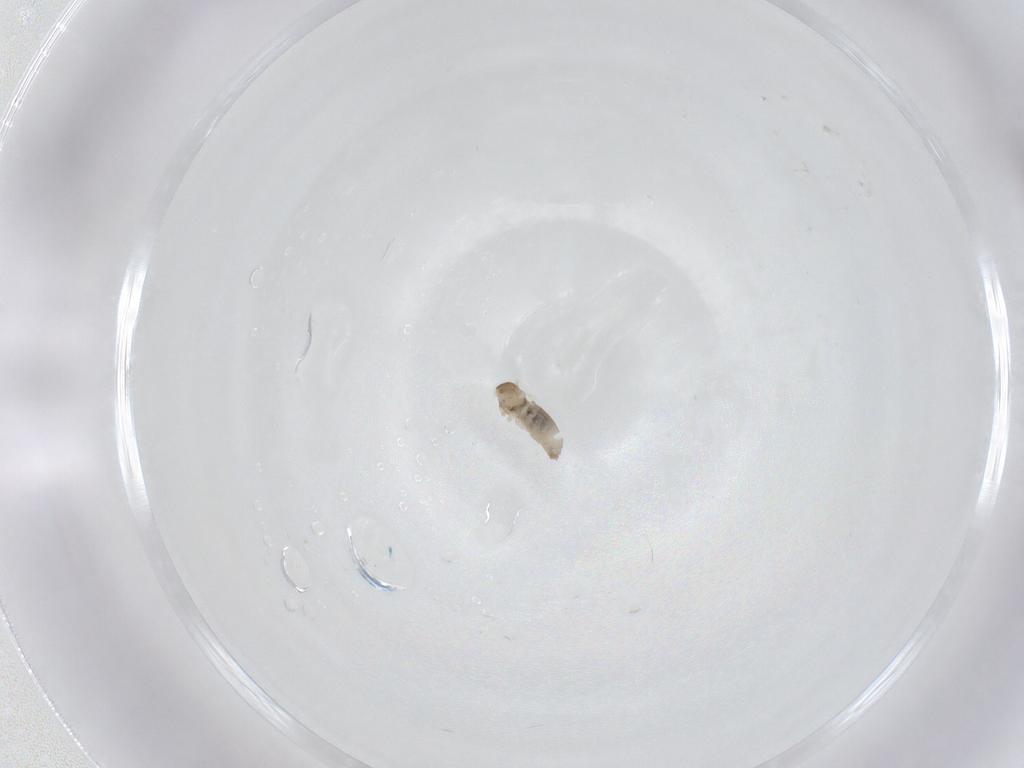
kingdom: Animalia
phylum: Arthropoda
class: Insecta
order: Diptera
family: Cecidomyiidae
